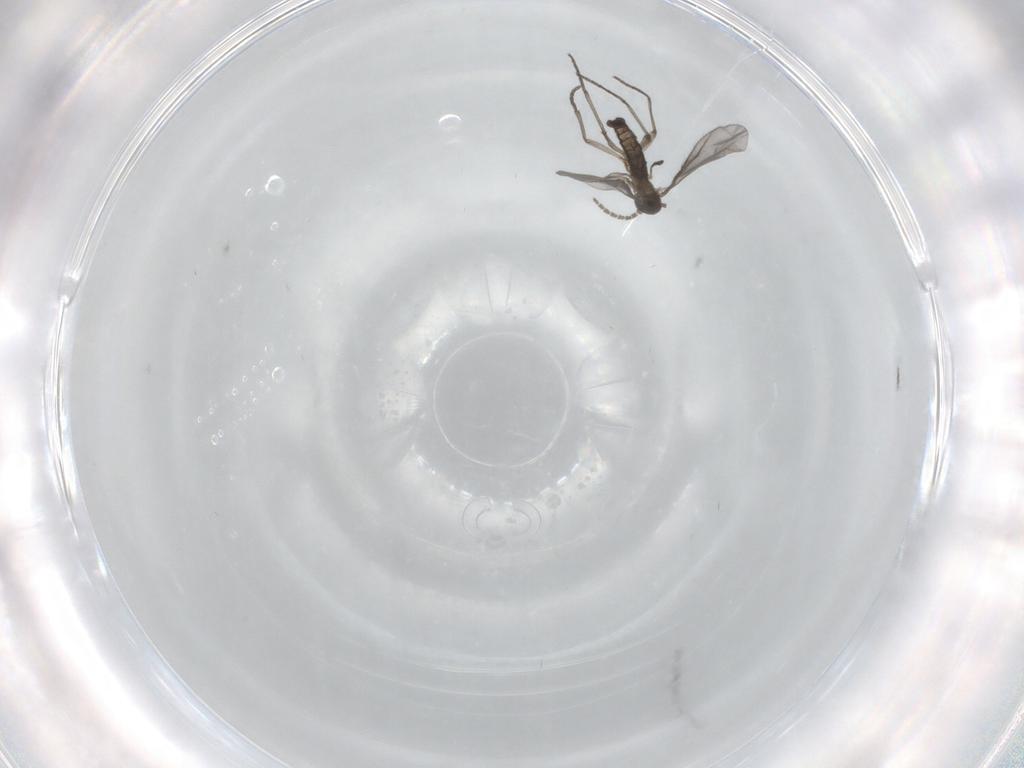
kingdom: Animalia
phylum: Arthropoda
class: Insecta
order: Diptera
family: Sciaridae
